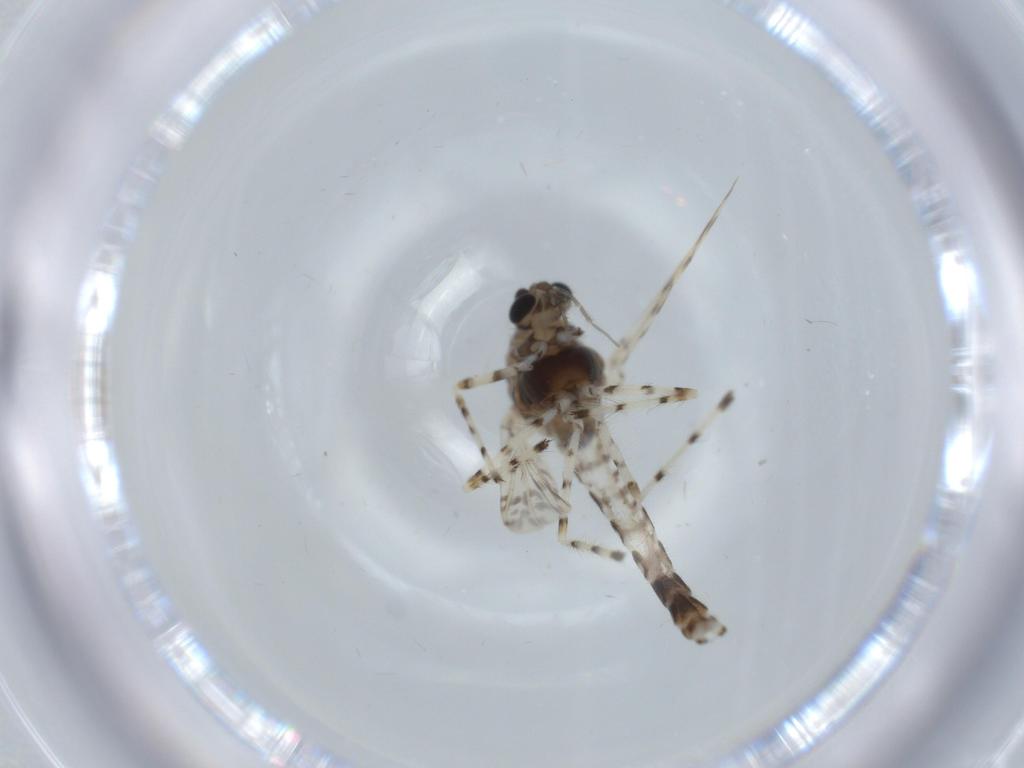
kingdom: Animalia
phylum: Arthropoda
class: Insecta
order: Diptera
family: Chironomidae
